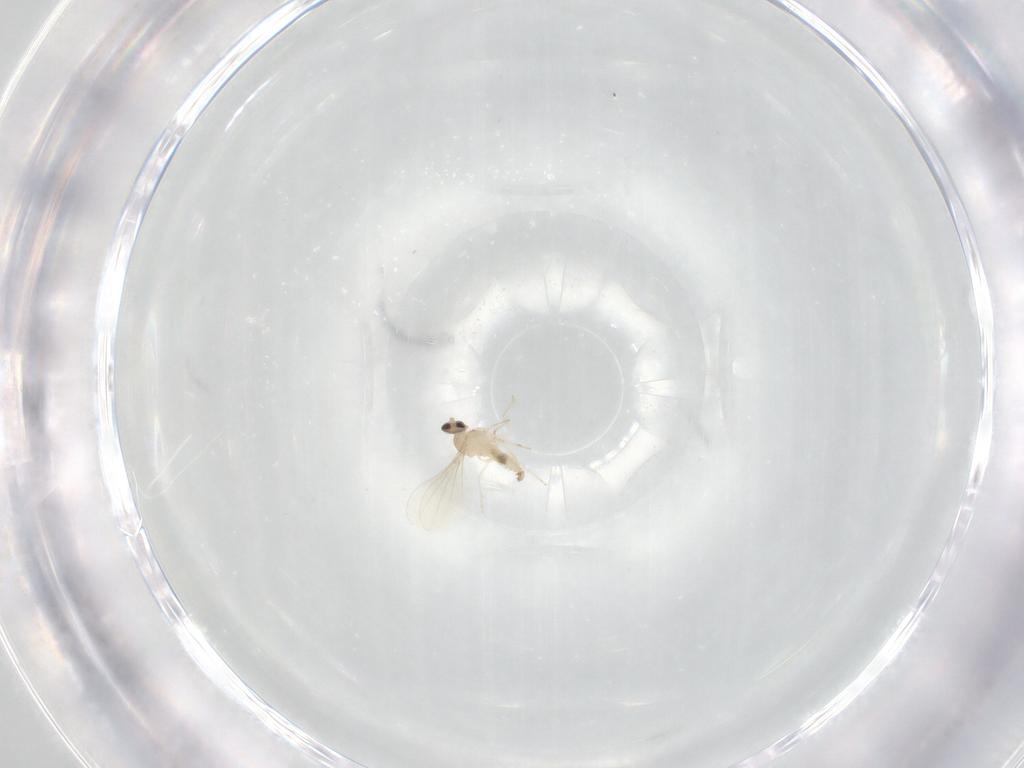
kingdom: Animalia
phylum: Arthropoda
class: Insecta
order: Diptera
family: Cecidomyiidae
